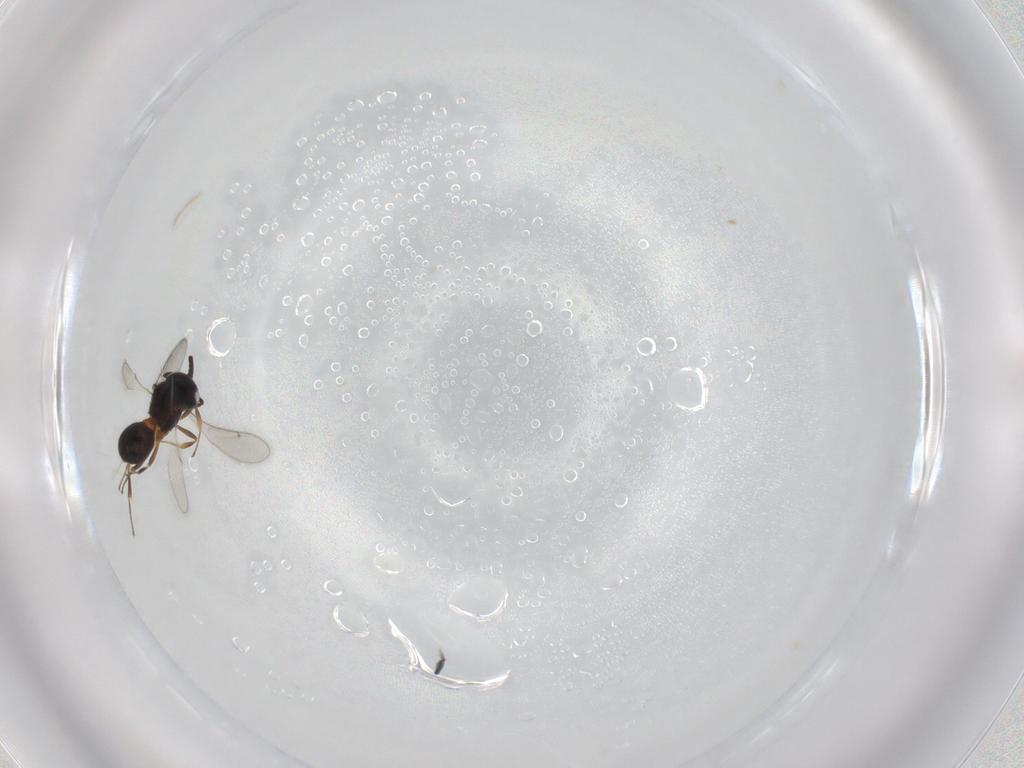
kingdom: Animalia
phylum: Arthropoda
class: Insecta
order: Hymenoptera
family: Scelionidae
